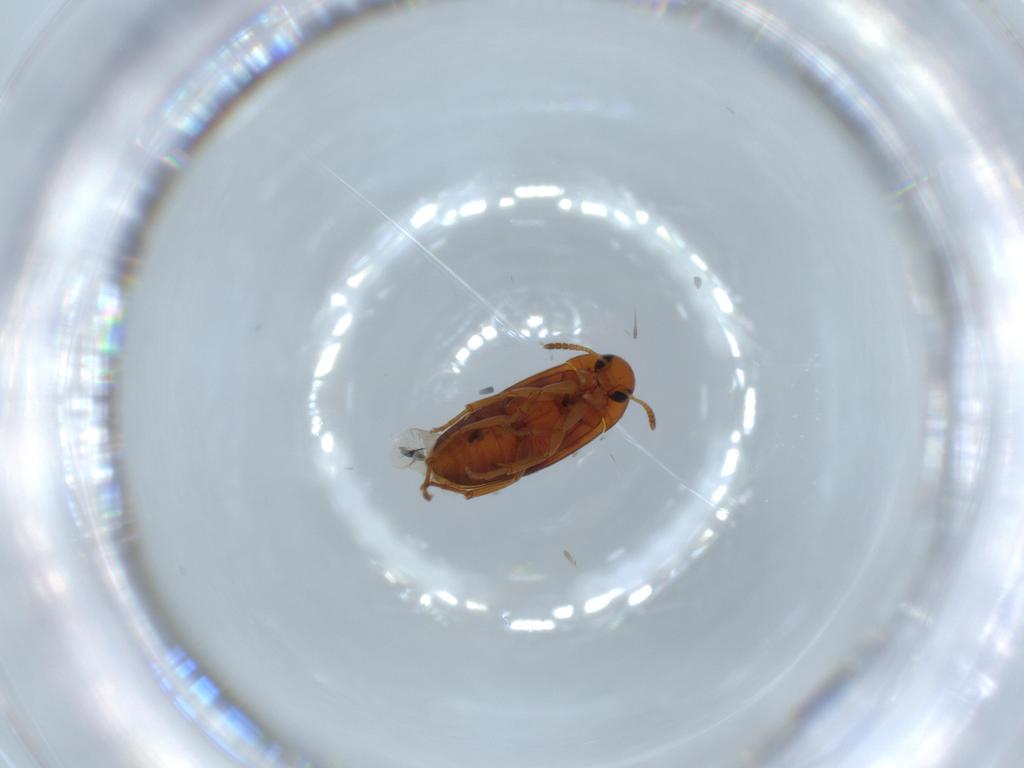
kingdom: Animalia
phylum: Arthropoda
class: Insecta
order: Coleoptera
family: Scraptiidae
